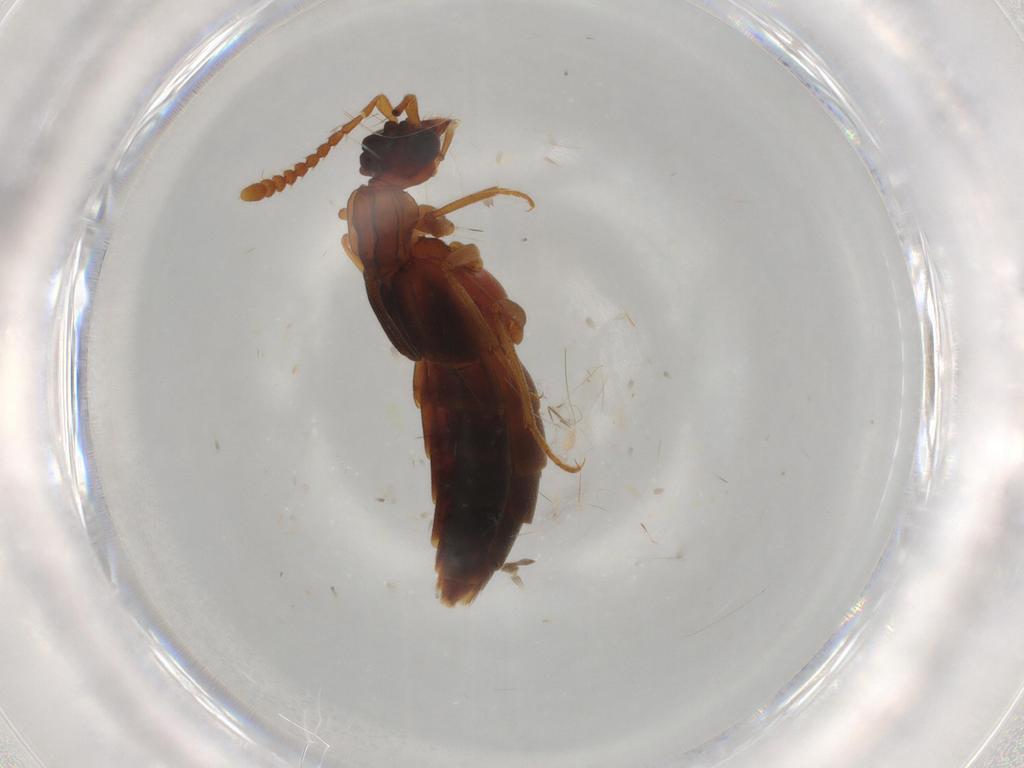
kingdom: Animalia
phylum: Arthropoda
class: Insecta
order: Coleoptera
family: Staphylinidae
